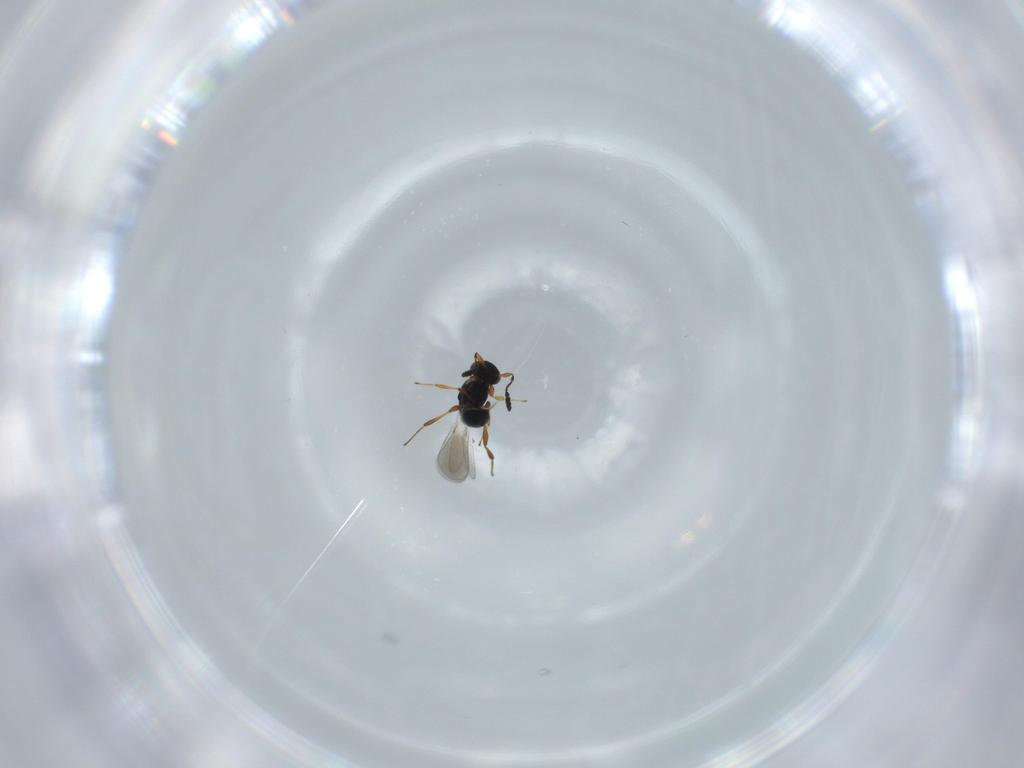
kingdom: Animalia
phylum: Arthropoda
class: Insecta
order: Hymenoptera
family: Platygastridae
